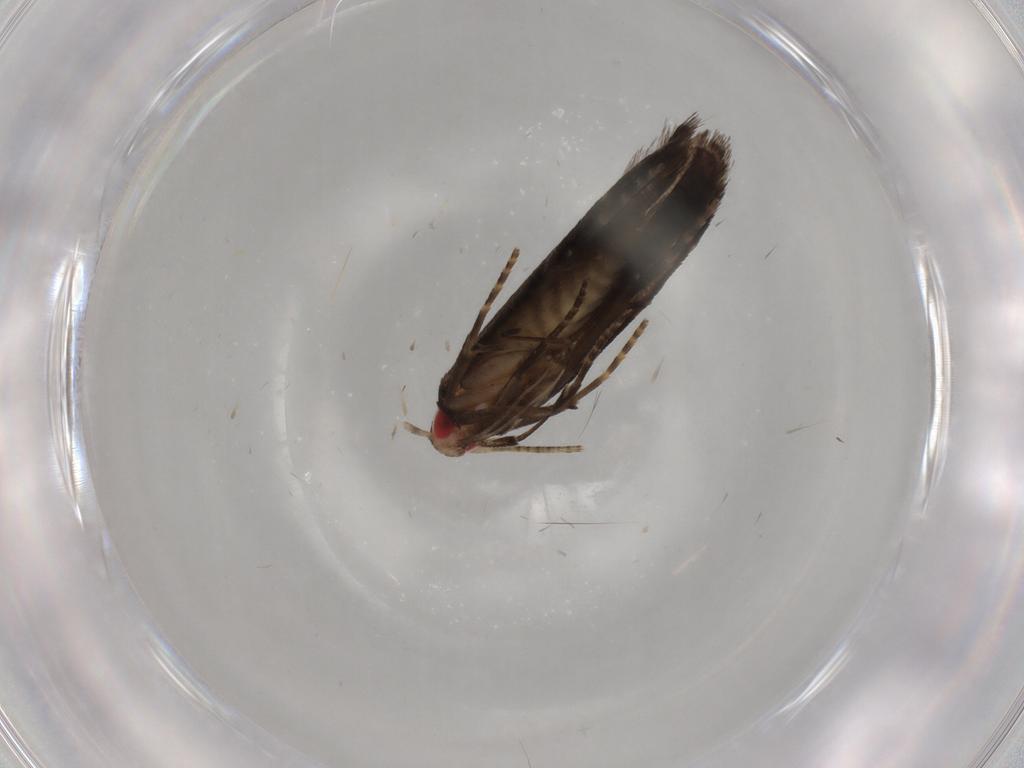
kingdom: Animalia
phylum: Arthropoda
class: Insecta
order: Lepidoptera
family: Gelechiidae
